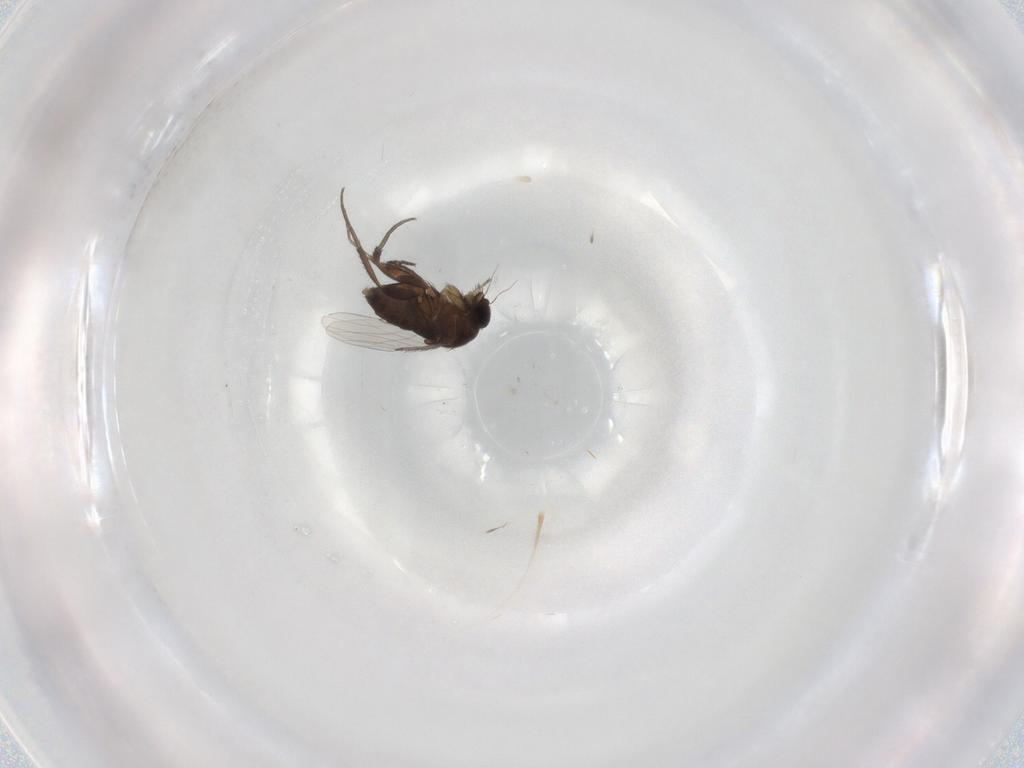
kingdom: Animalia
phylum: Arthropoda
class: Insecta
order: Diptera
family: Phoridae
